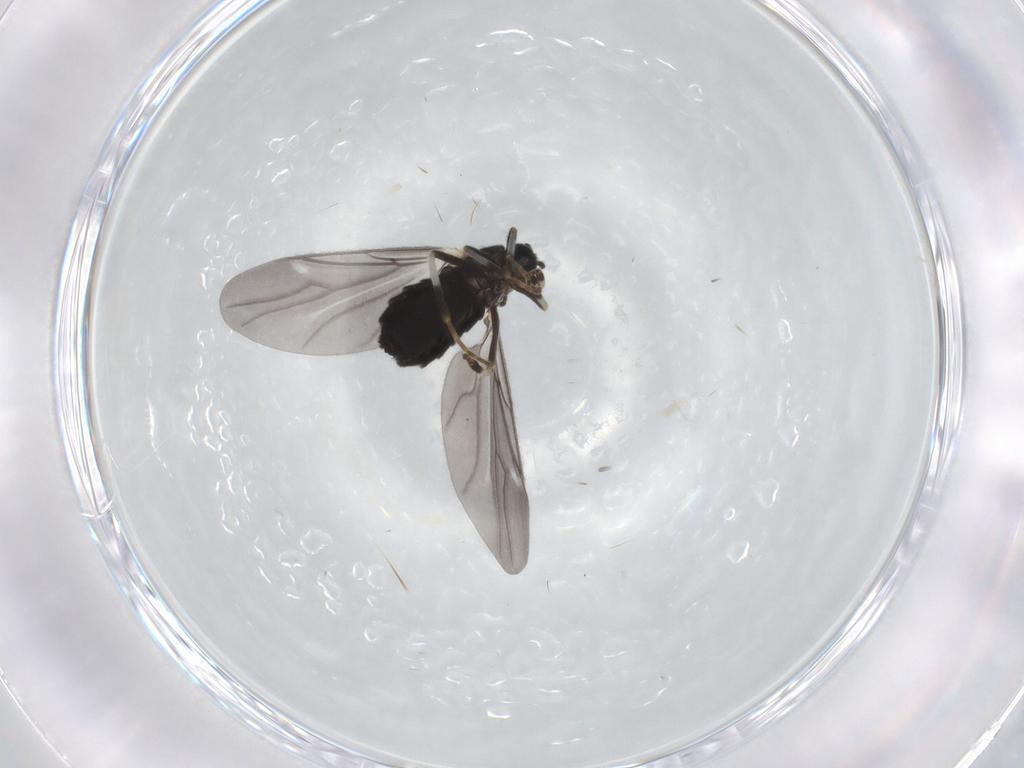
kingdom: Animalia
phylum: Arthropoda
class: Insecta
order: Diptera
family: Scatopsidae
